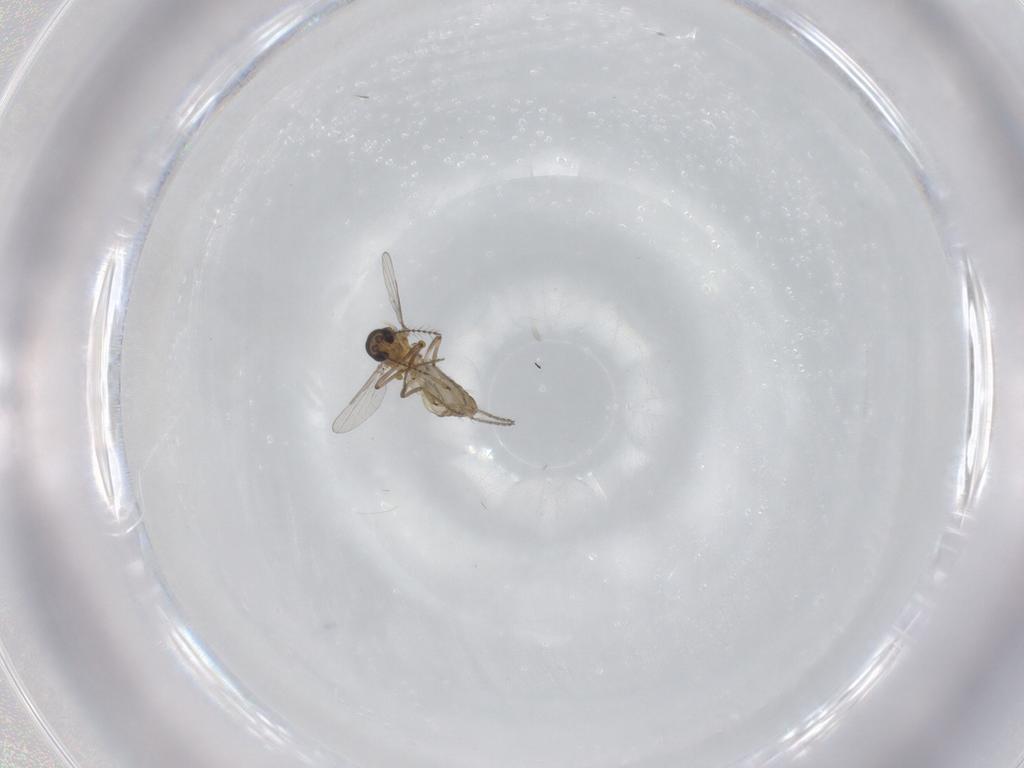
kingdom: Animalia
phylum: Arthropoda
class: Insecta
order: Diptera
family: Ceratopogonidae
